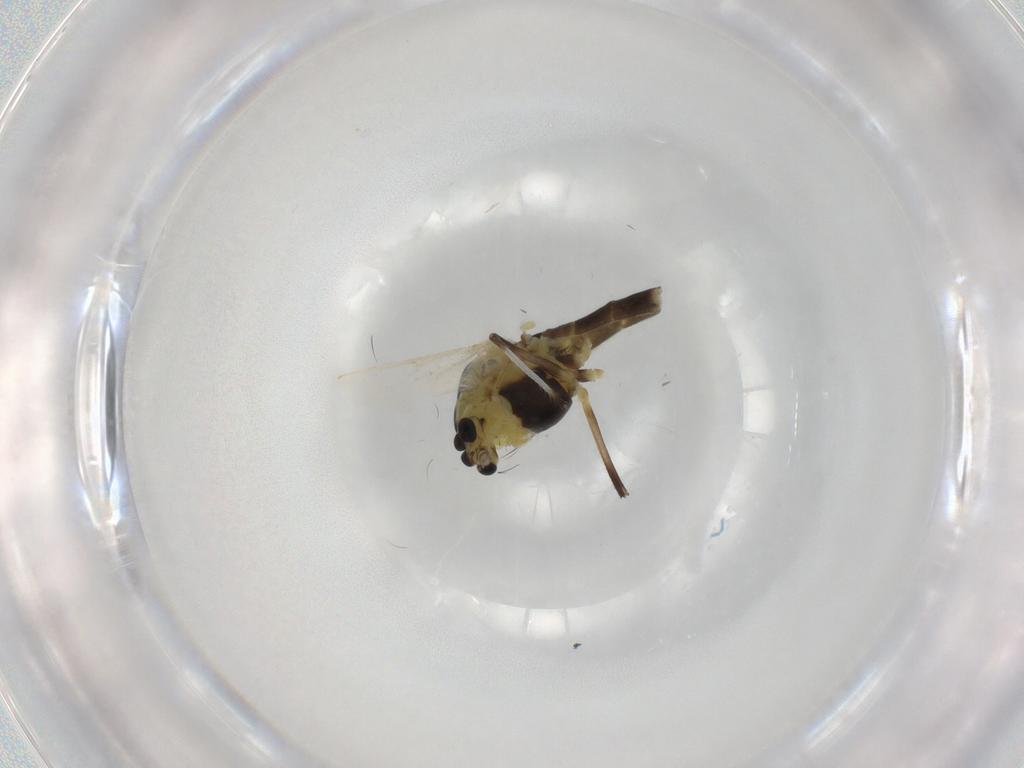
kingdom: Animalia
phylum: Arthropoda
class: Insecta
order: Diptera
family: Chironomidae
